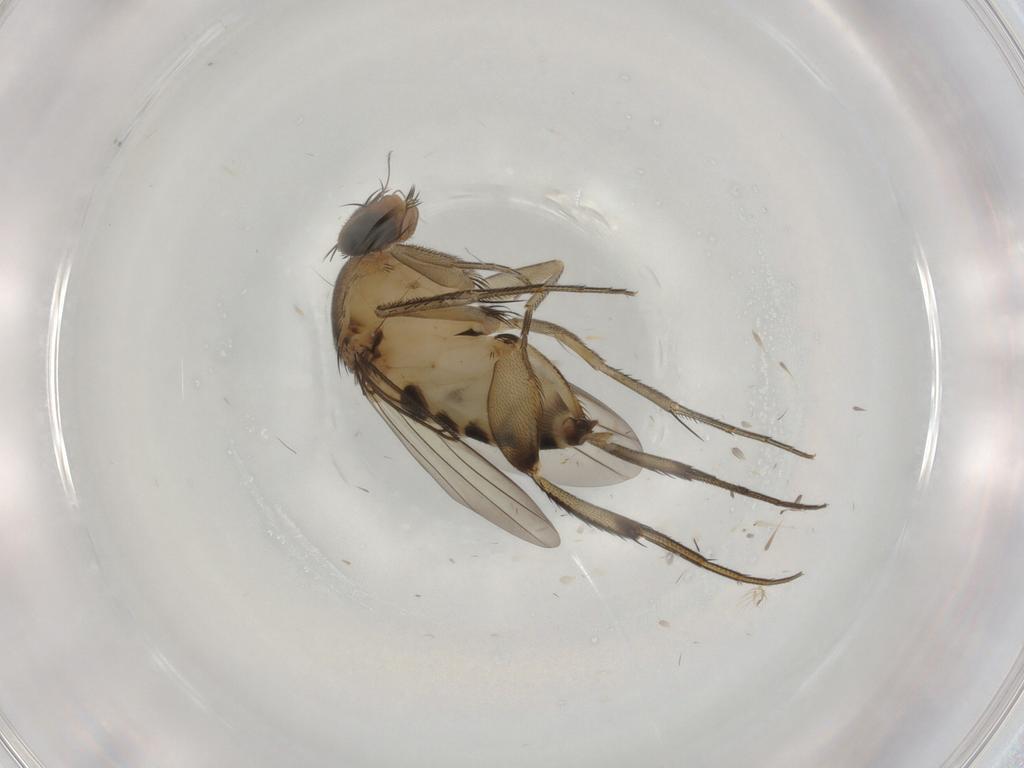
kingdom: Animalia
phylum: Arthropoda
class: Insecta
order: Diptera
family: Phoridae
